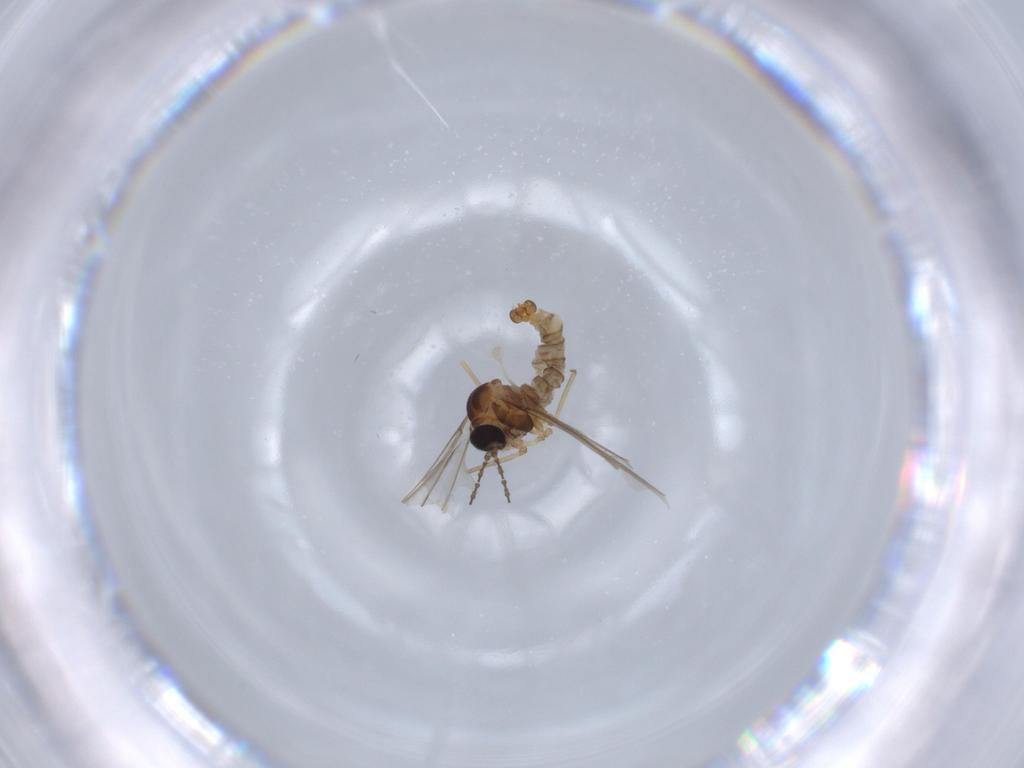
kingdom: Animalia
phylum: Arthropoda
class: Insecta
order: Diptera
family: Cecidomyiidae
